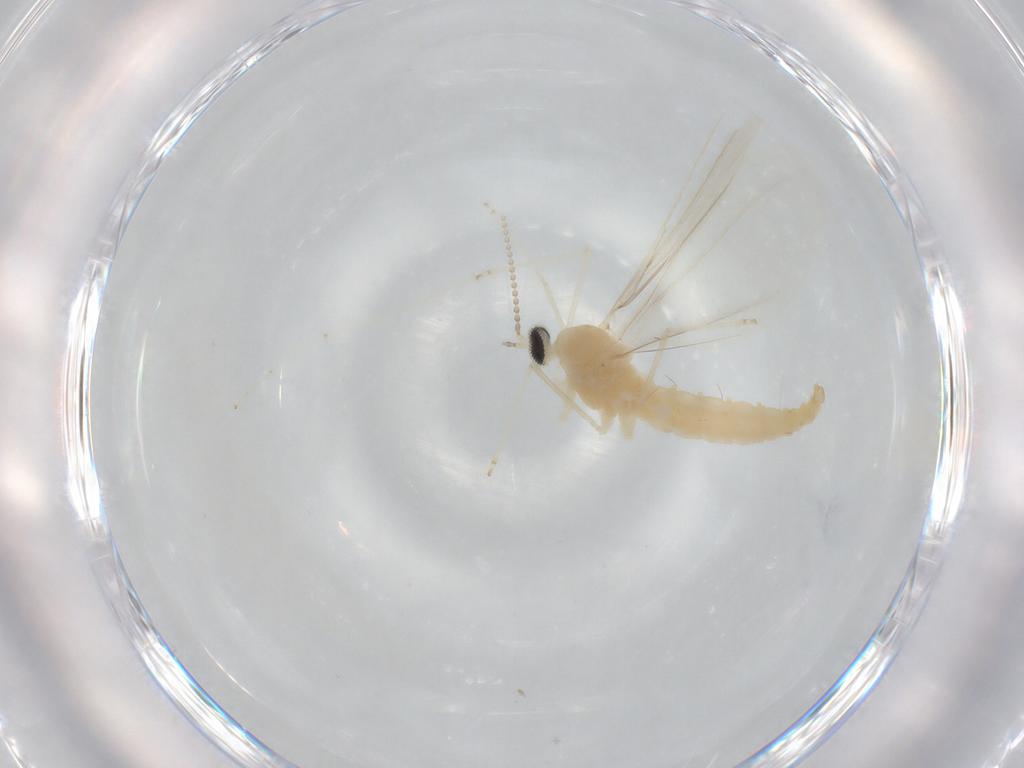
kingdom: Animalia
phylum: Arthropoda
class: Insecta
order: Diptera
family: Cecidomyiidae
